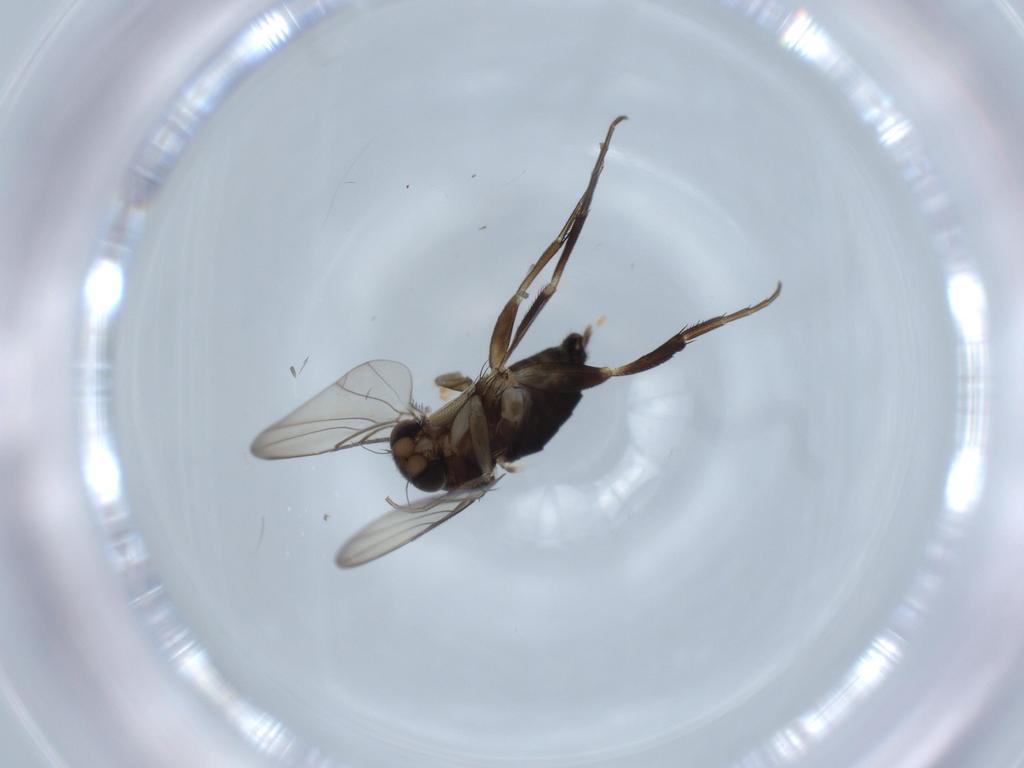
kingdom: Animalia
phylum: Arthropoda
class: Insecta
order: Diptera
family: Phoridae
